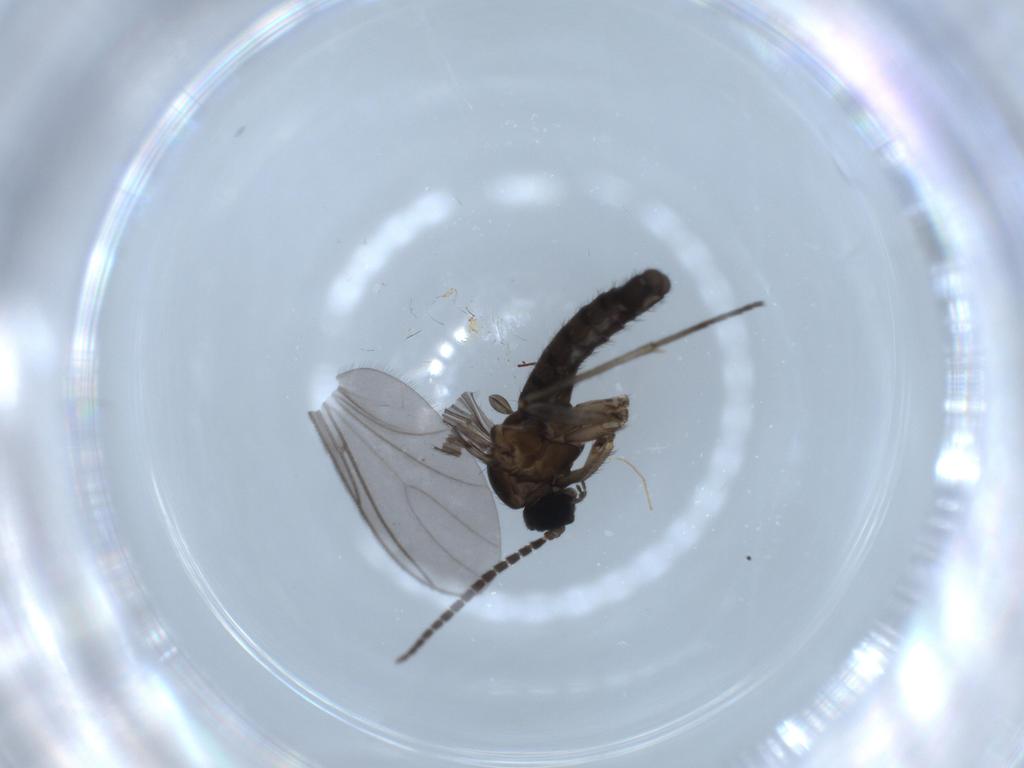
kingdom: Animalia
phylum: Arthropoda
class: Insecta
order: Diptera
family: Sciaridae
